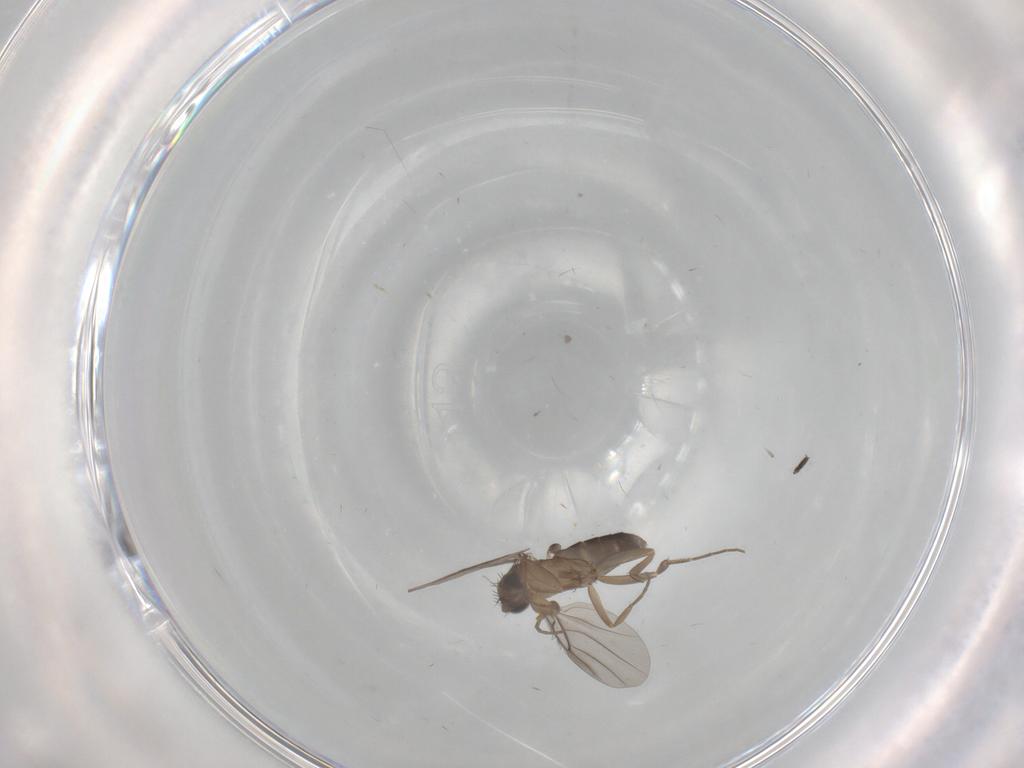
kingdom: Animalia
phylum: Arthropoda
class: Insecta
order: Diptera
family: Sciaridae
